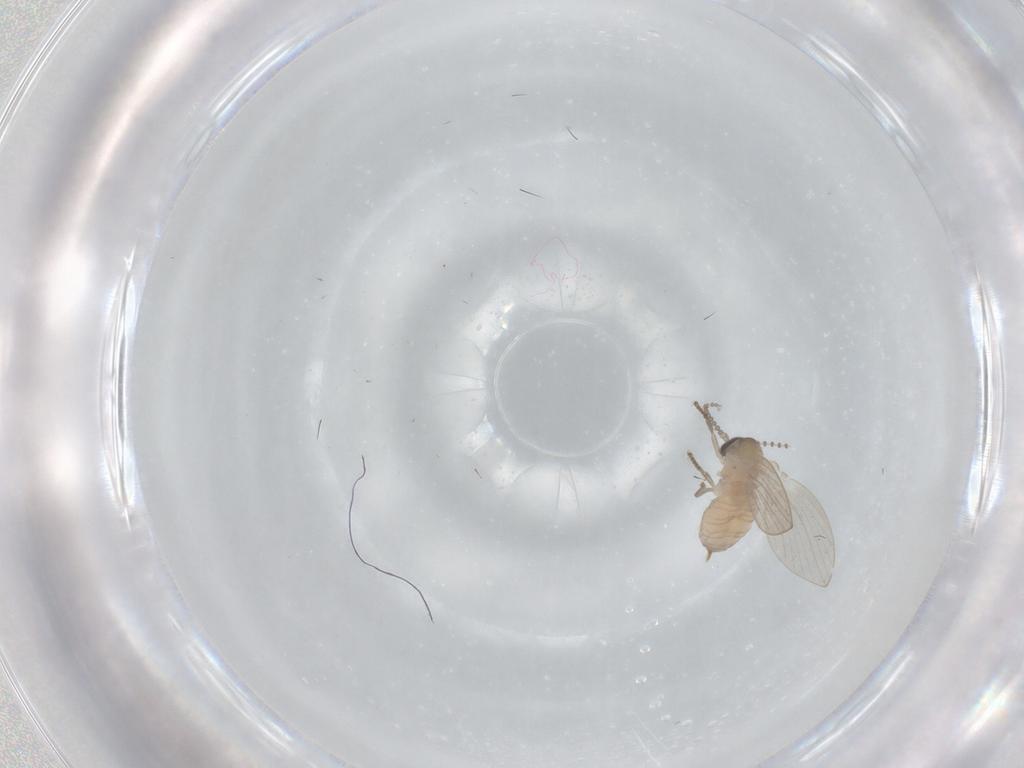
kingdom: Animalia
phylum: Arthropoda
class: Insecta
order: Diptera
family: Psychodidae
